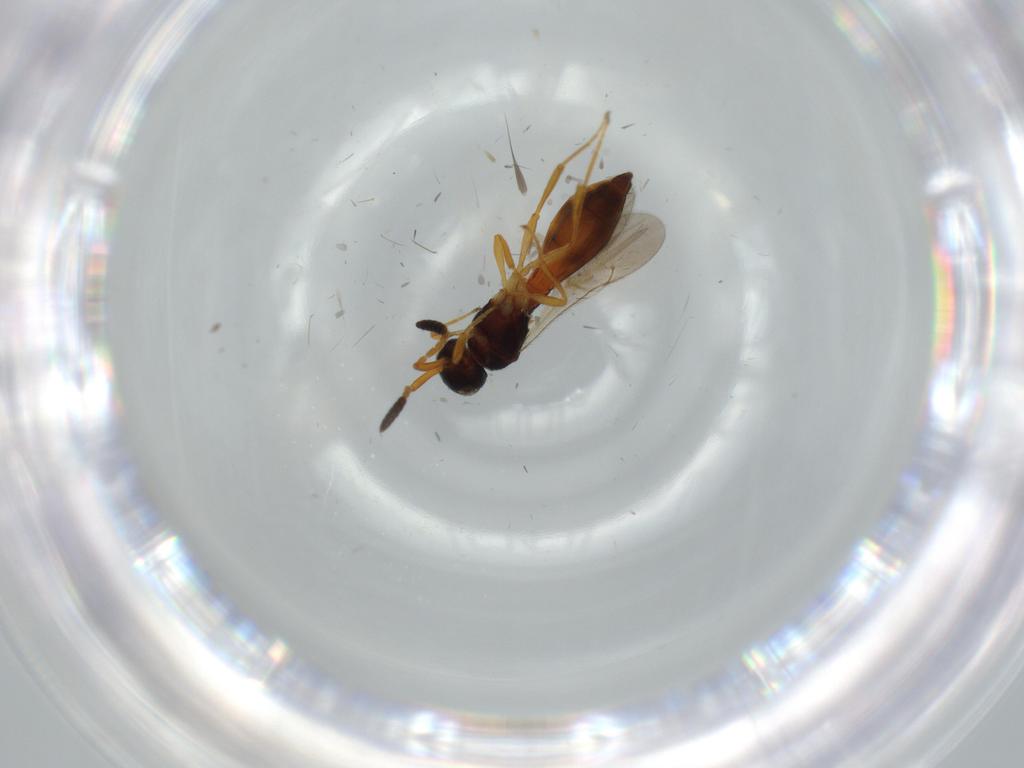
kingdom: Animalia
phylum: Arthropoda
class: Insecta
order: Hymenoptera
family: Scelionidae
